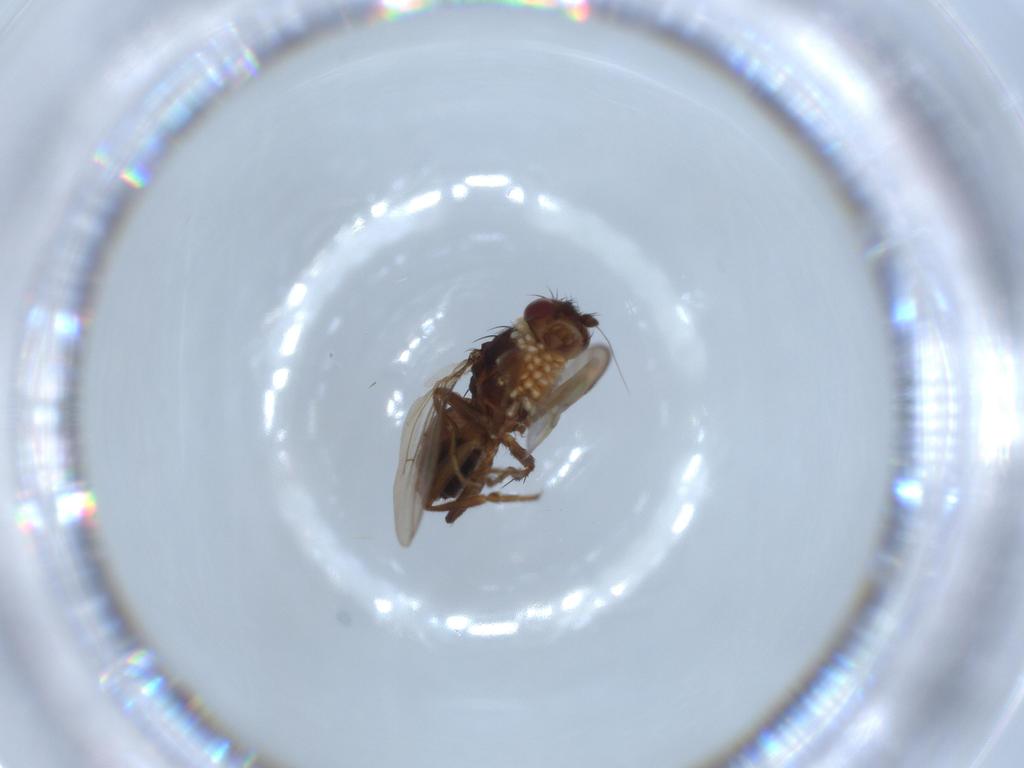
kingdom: Animalia
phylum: Arthropoda
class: Insecta
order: Diptera
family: Sphaeroceridae
